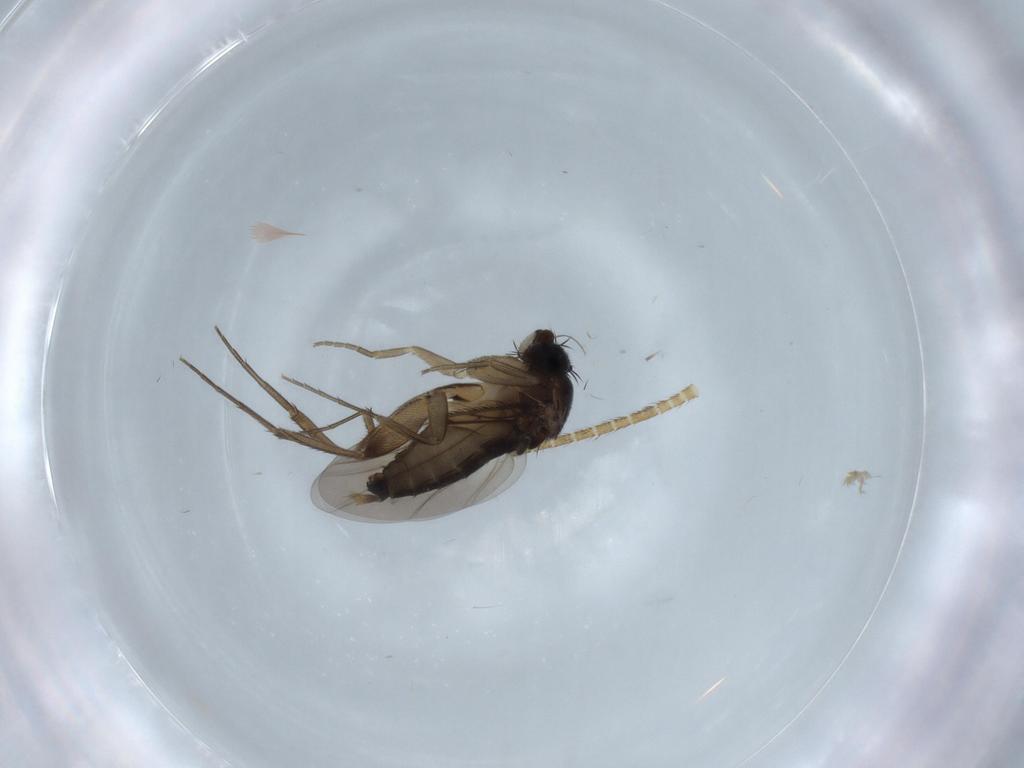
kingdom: Animalia
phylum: Arthropoda
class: Insecta
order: Diptera
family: Phoridae
